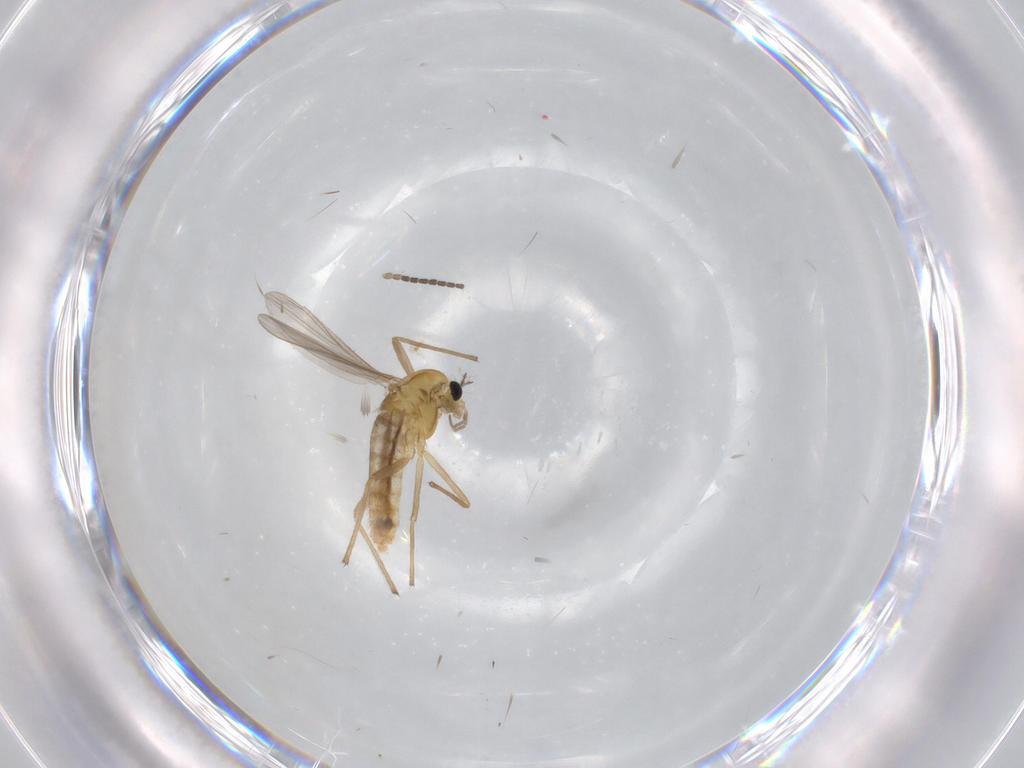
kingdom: Animalia
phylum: Arthropoda
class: Insecta
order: Diptera
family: Sciaridae
